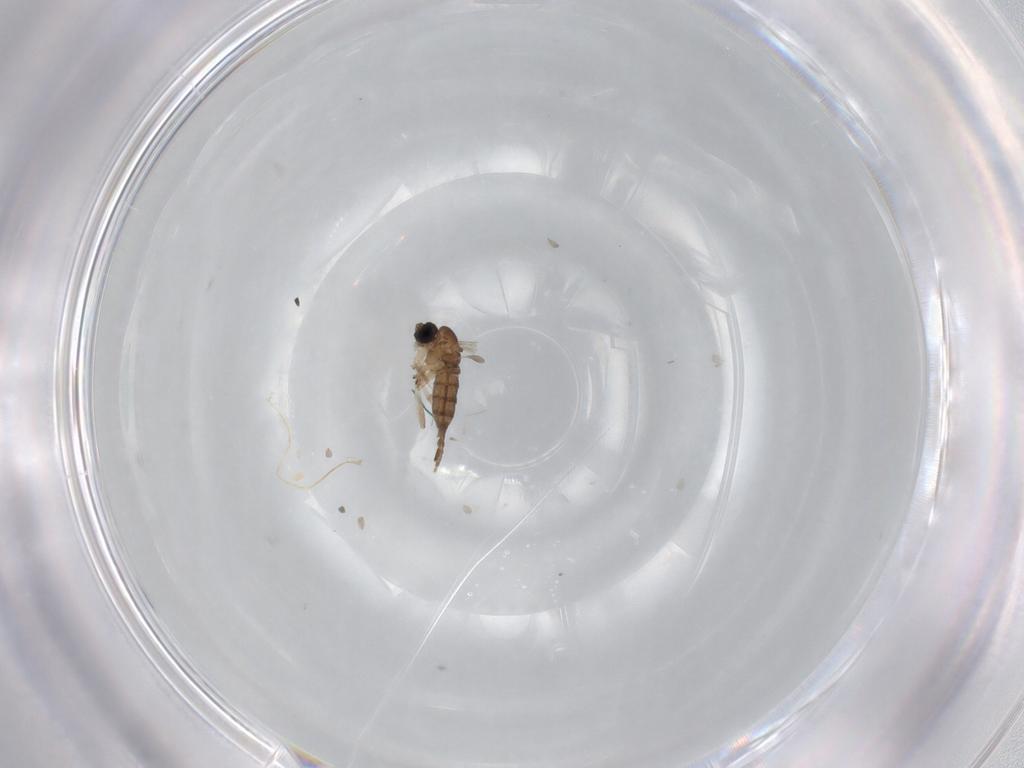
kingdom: Animalia
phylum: Arthropoda
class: Insecta
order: Diptera
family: Sciaridae
